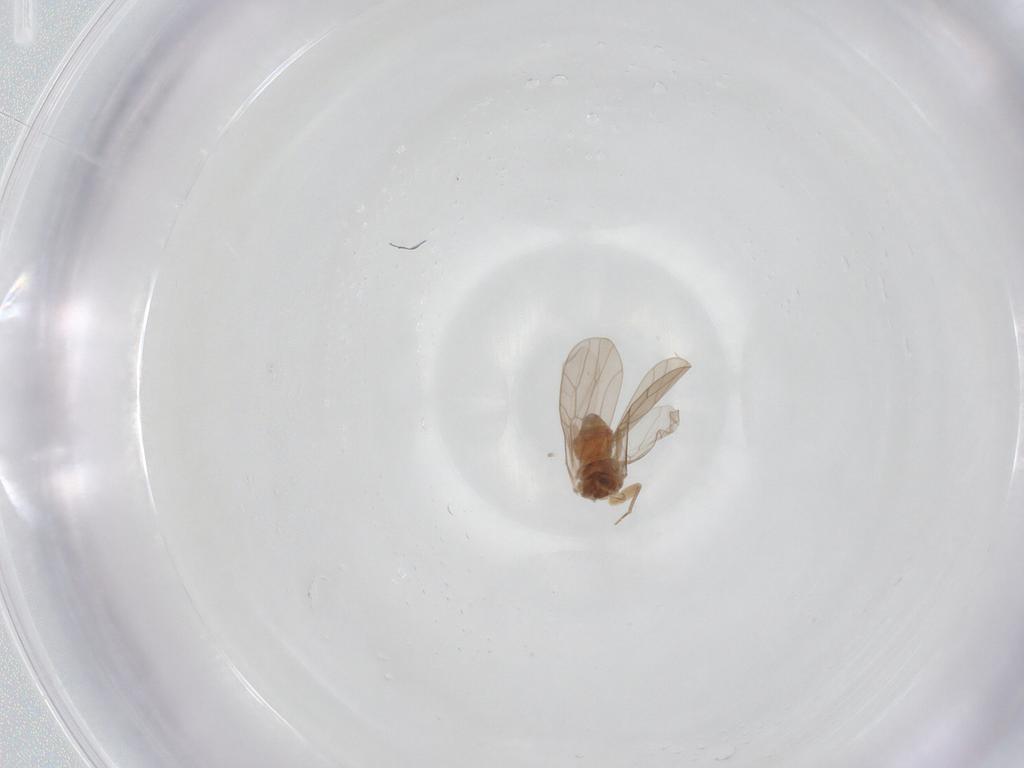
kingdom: Animalia
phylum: Arthropoda
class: Insecta
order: Psocodea
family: Lepidopsocidae
